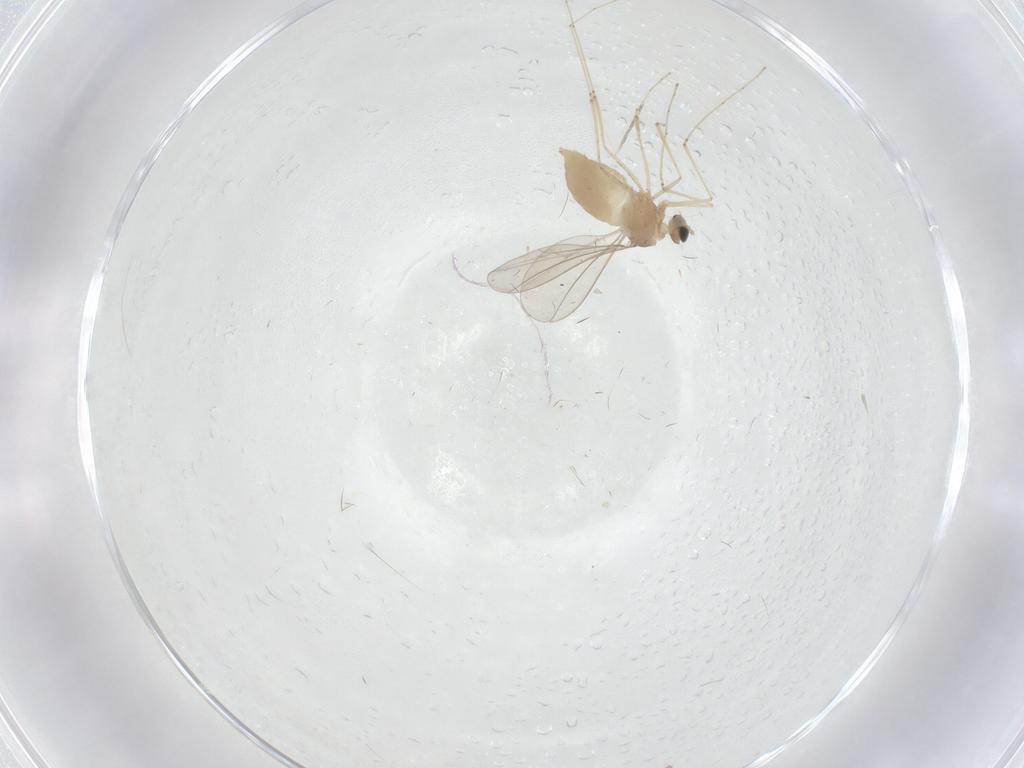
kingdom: Animalia
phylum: Arthropoda
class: Insecta
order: Diptera
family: Cecidomyiidae
